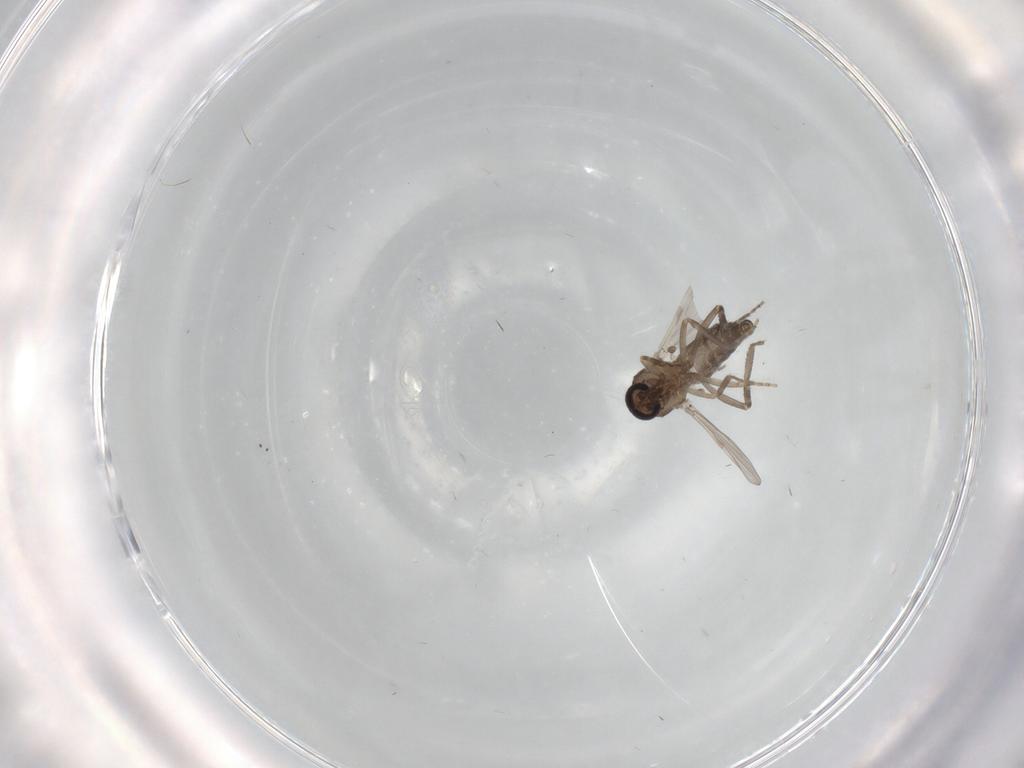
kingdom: Animalia
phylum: Arthropoda
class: Insecta
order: Diptera
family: Ceratopogonidae
